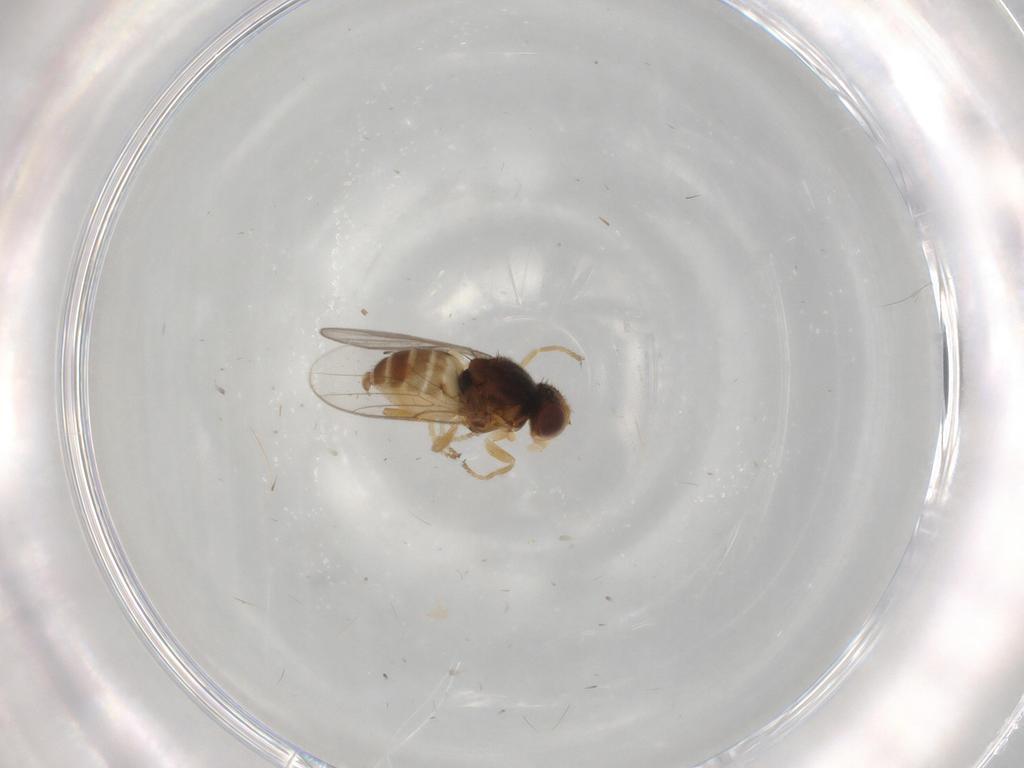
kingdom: Animalia
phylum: Arthropoda
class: Insecta
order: Diptera
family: Chloropidae
